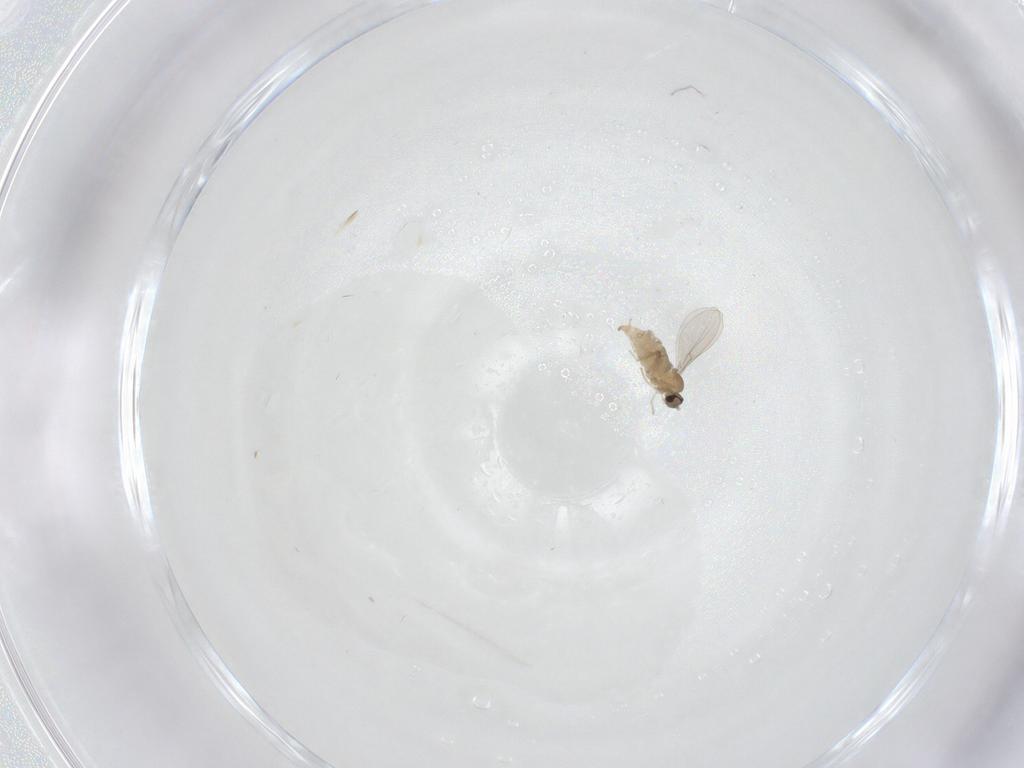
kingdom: Animalia
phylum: Arthropoda
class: Insecta
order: Diptera
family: Cecidomyiidae
